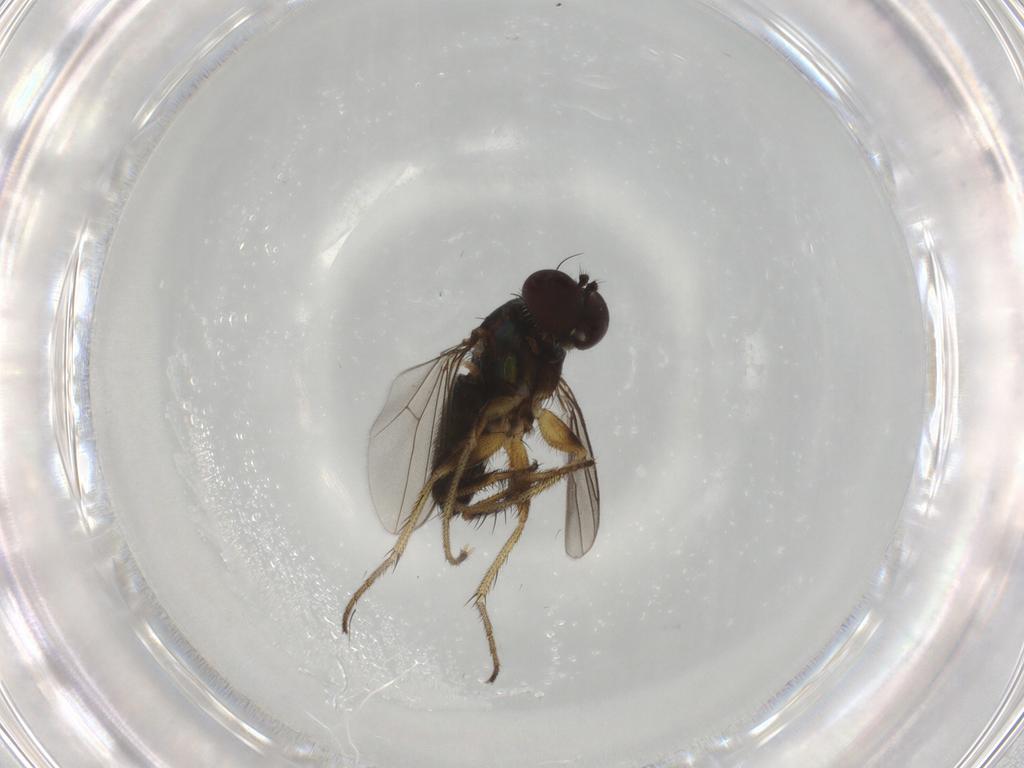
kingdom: Animalia
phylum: Arthropoda
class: Insecta
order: Diptera
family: Dolichopodidae
